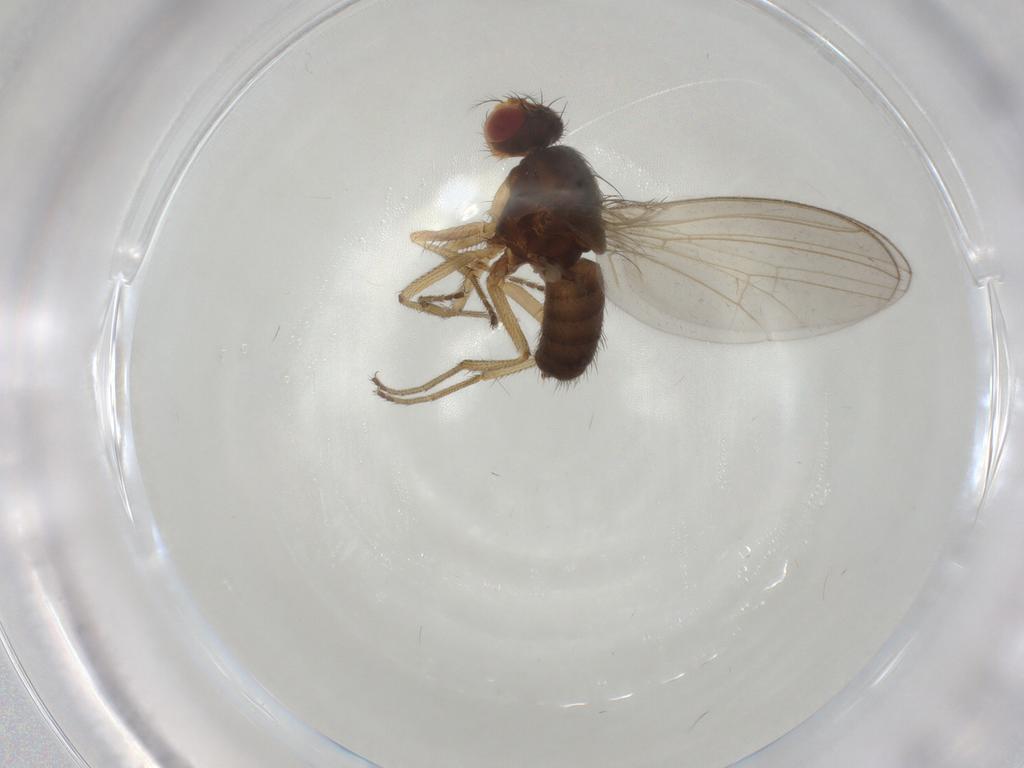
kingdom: Animalia
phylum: Arthropoda
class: Insecta
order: Diptera
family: Drosophilidae
